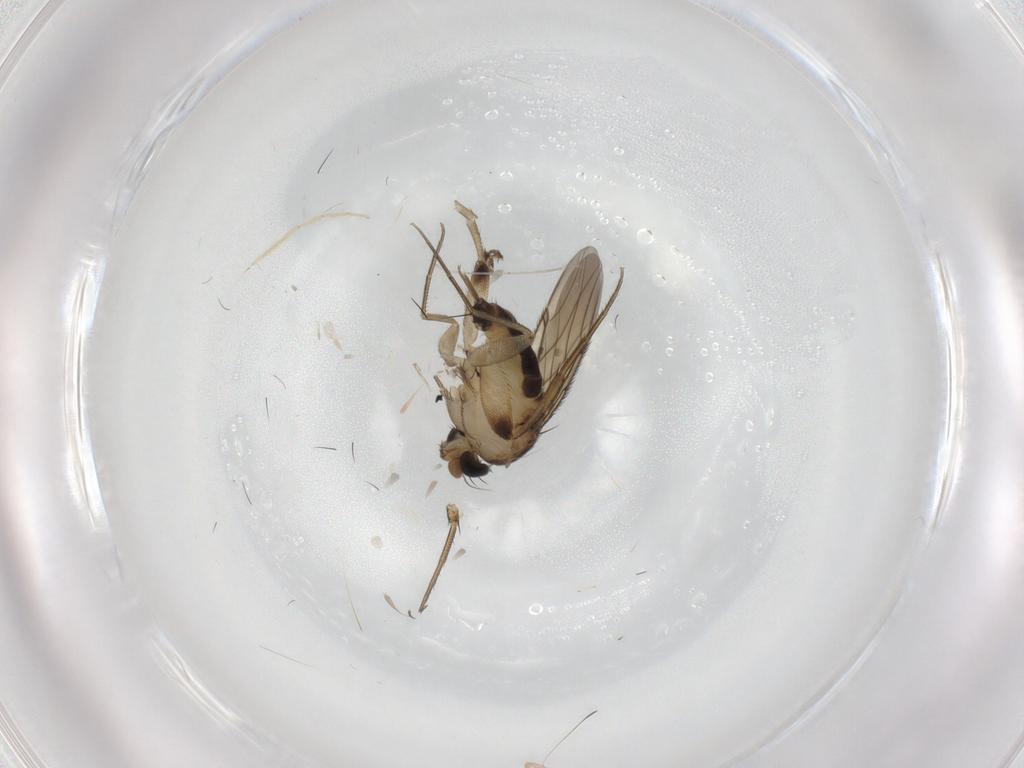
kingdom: Animalia
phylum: Arthropoda
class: Insecta
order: Diptera
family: Phoridae
